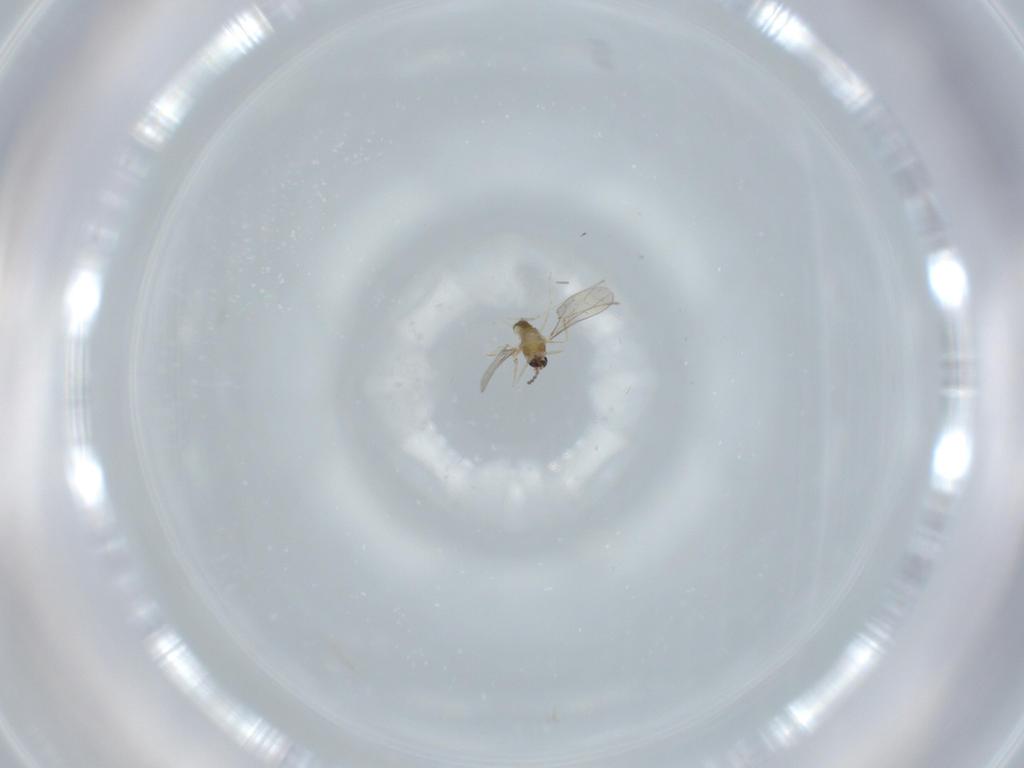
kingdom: Animalia
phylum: Arthropoda
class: Insecta
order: Diptera
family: Cecidomyiidae
